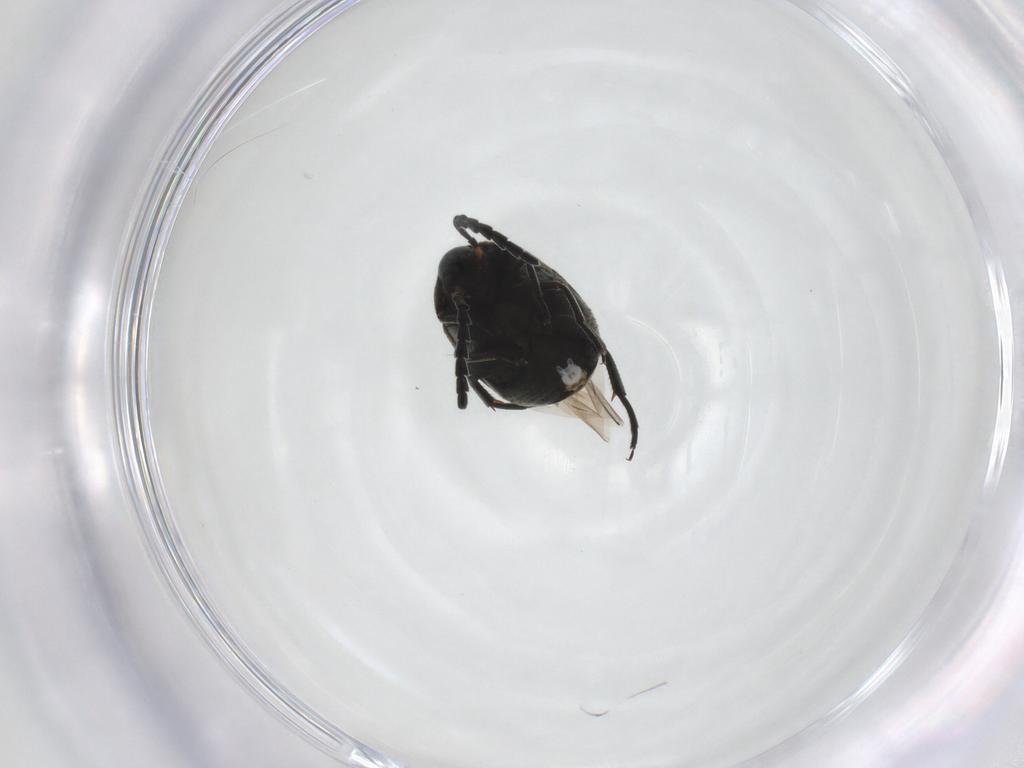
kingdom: Animalia
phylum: Arthropoda
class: Insecta
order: Coleoptera
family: Chrysomelidae
